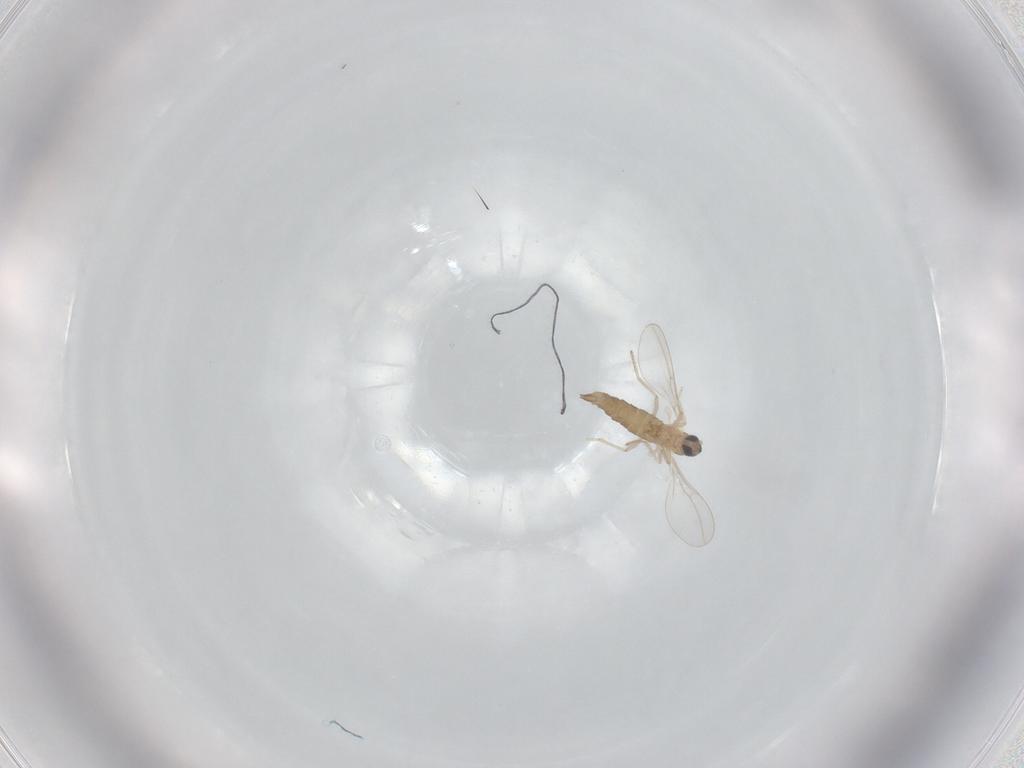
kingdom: Animalia
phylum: Arthropoda
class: Insecta
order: Diptera
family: Cecidomyiidae
